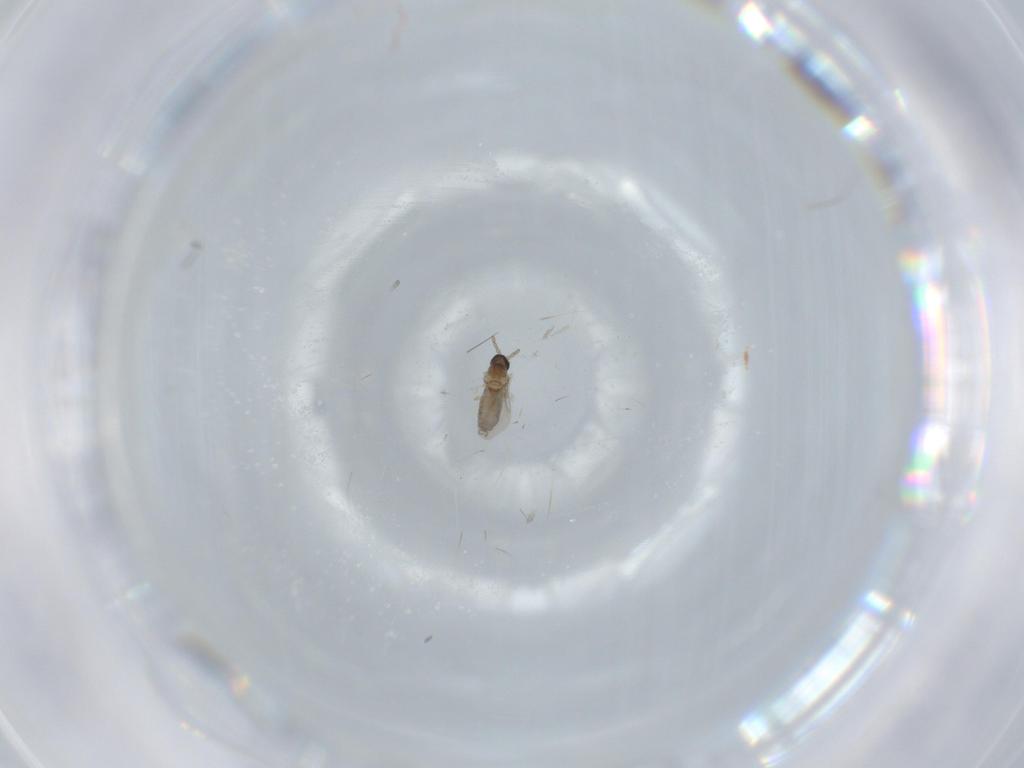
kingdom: Animalia
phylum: Arthropoda
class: Insecta
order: Diptera
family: Cecidomyiidae
